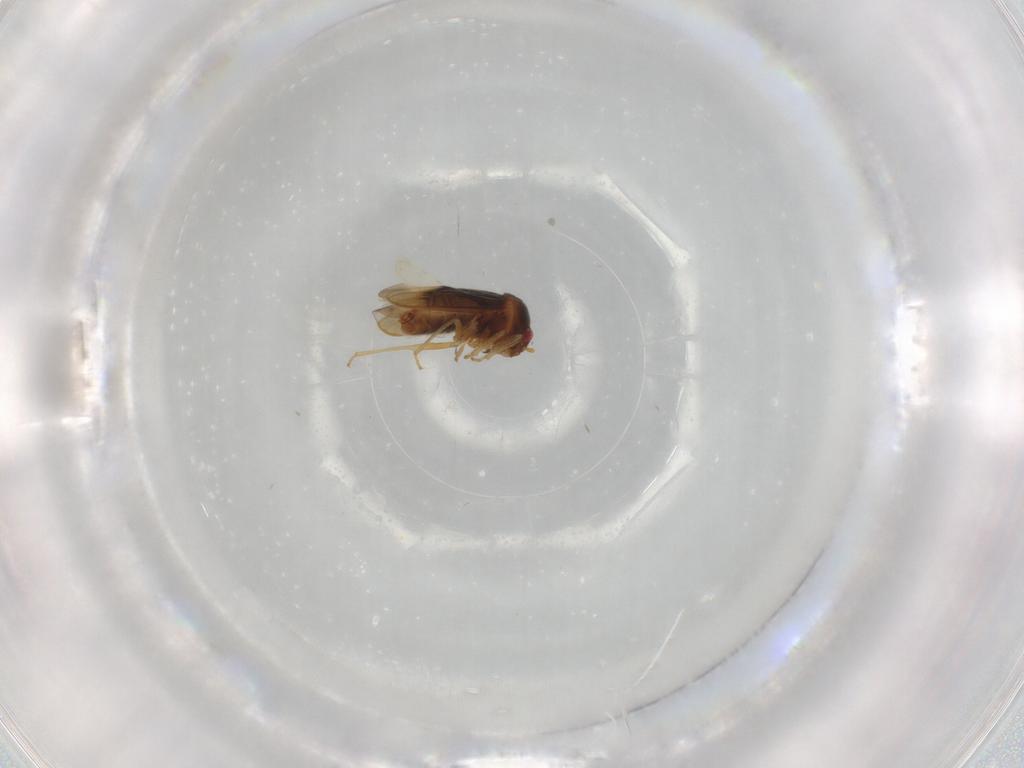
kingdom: Animalia
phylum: Arthropoda
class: Insecta
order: Hemiptera
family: Schizopteridae
